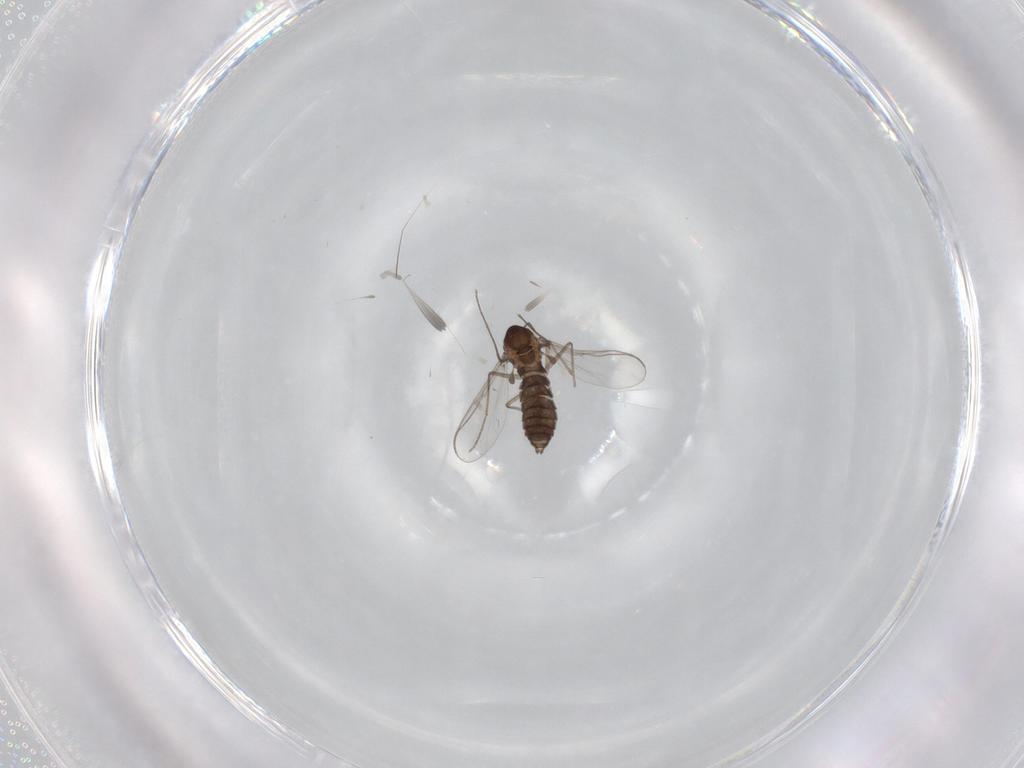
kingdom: Animalia
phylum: Arthropoda
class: Insecta
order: Diptera
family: Chironomidae
